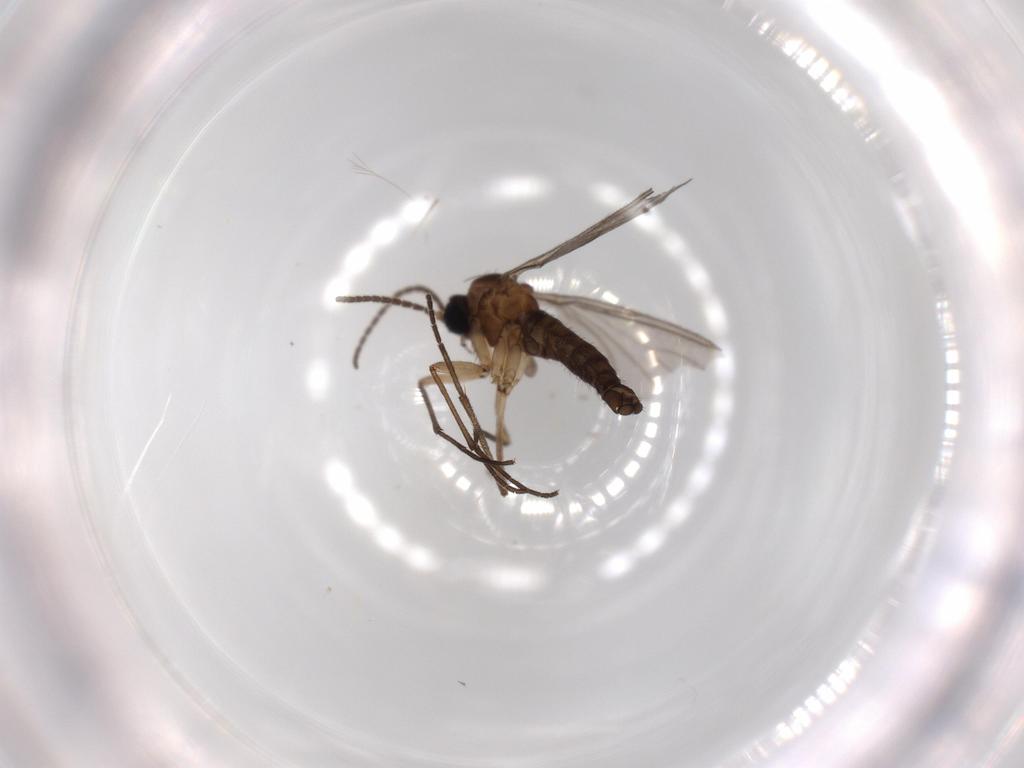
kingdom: Animalia
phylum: Arthropoda
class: Insecta
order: Diptera
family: Sciaridae
